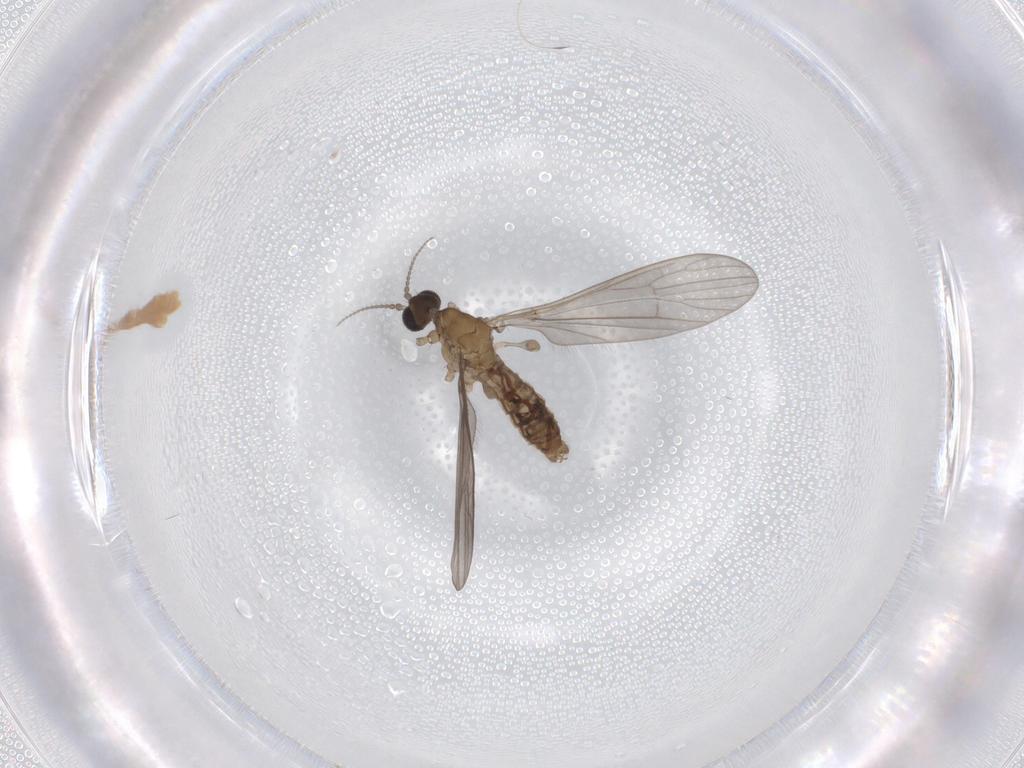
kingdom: Animalia
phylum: Arthropoda
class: Insecta
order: Diptera
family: Limoniidae
